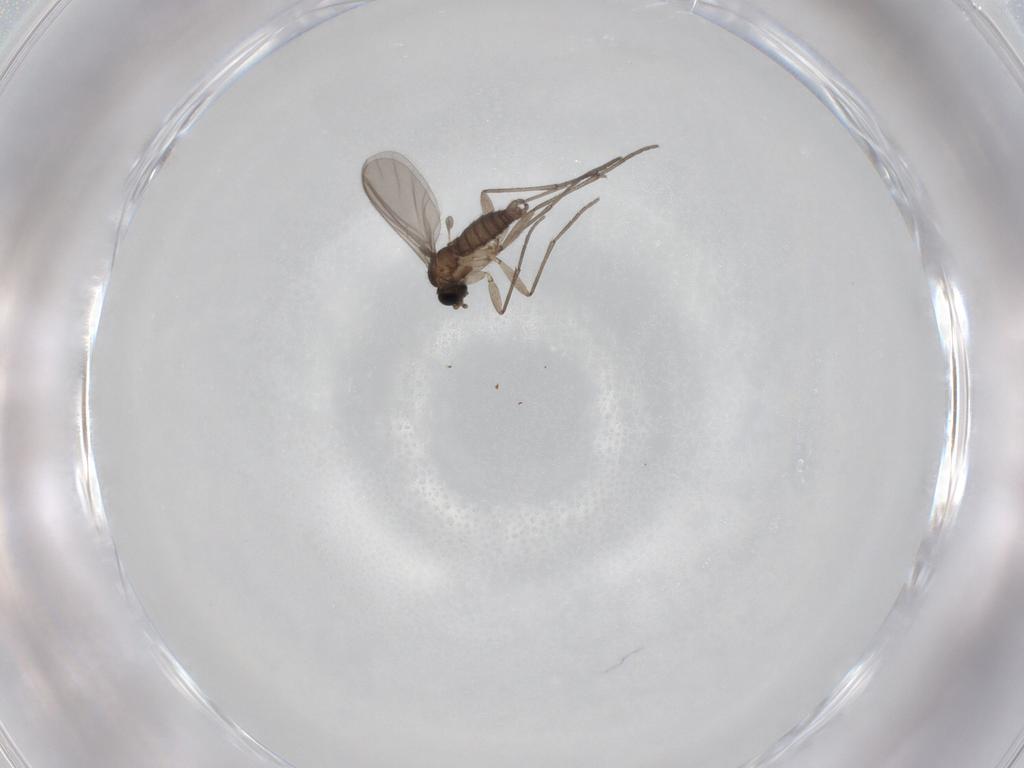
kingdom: Animalia
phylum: Arthropoda
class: Insecta
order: Diptera
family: Sciaridae
